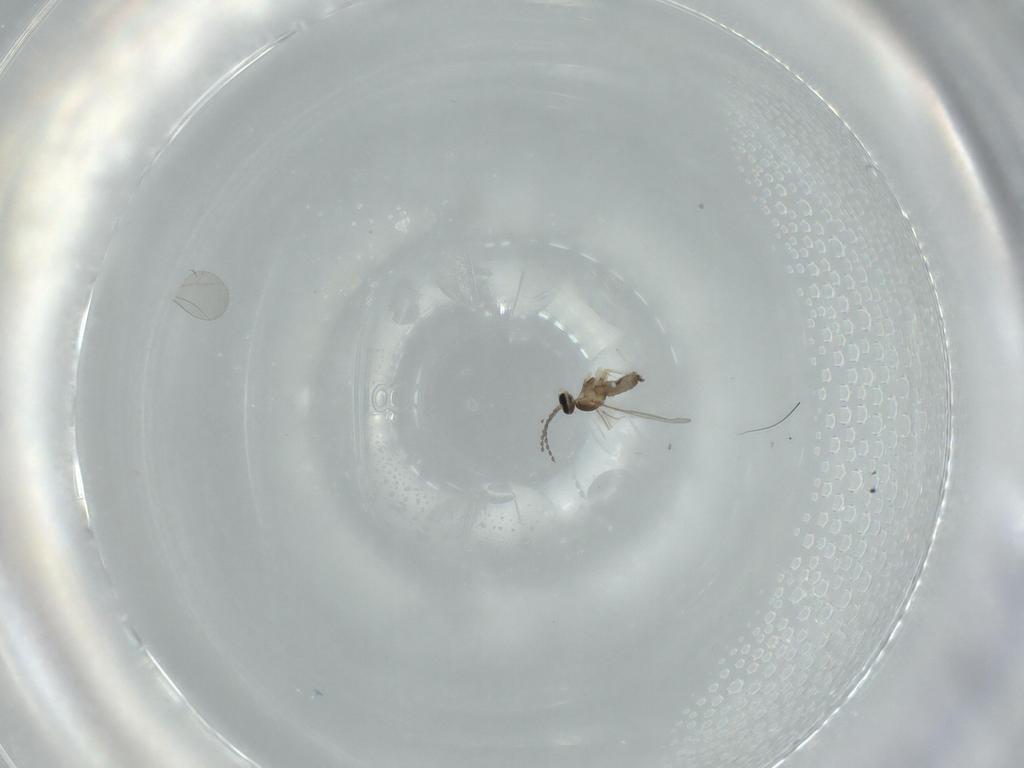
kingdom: Animalia
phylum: Arthropoda
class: Insecta
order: Diptera
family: Cecidomyiidae
